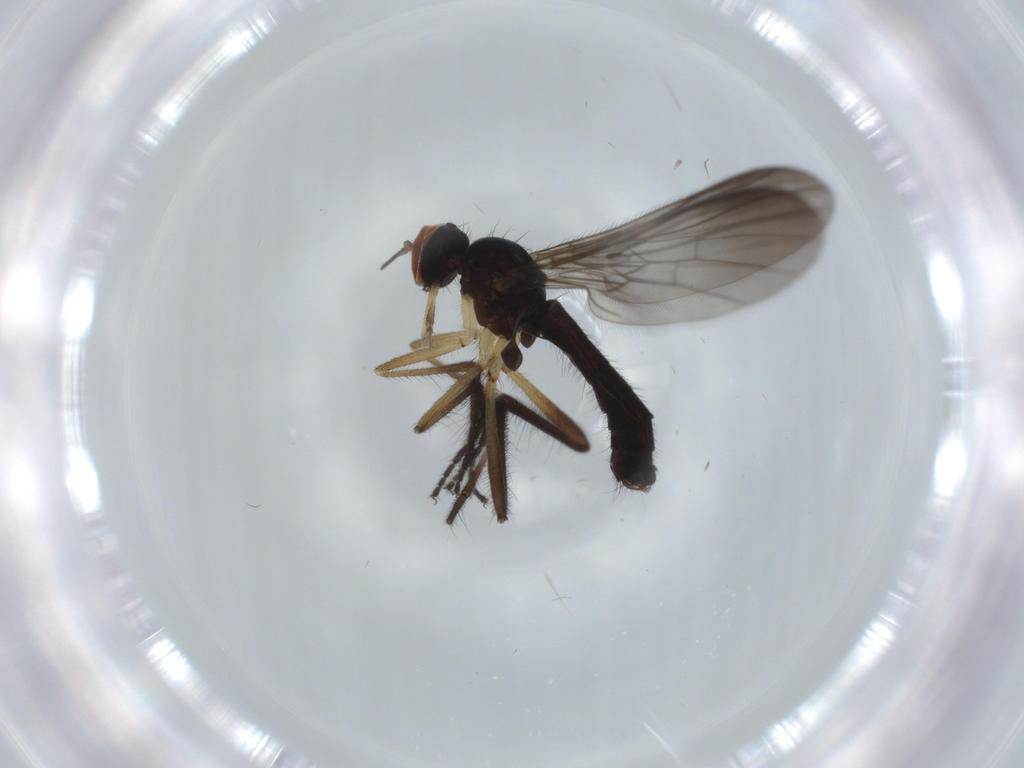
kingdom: Animalia
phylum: Arthropoda
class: Insecta
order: Diptera
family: Empididae
